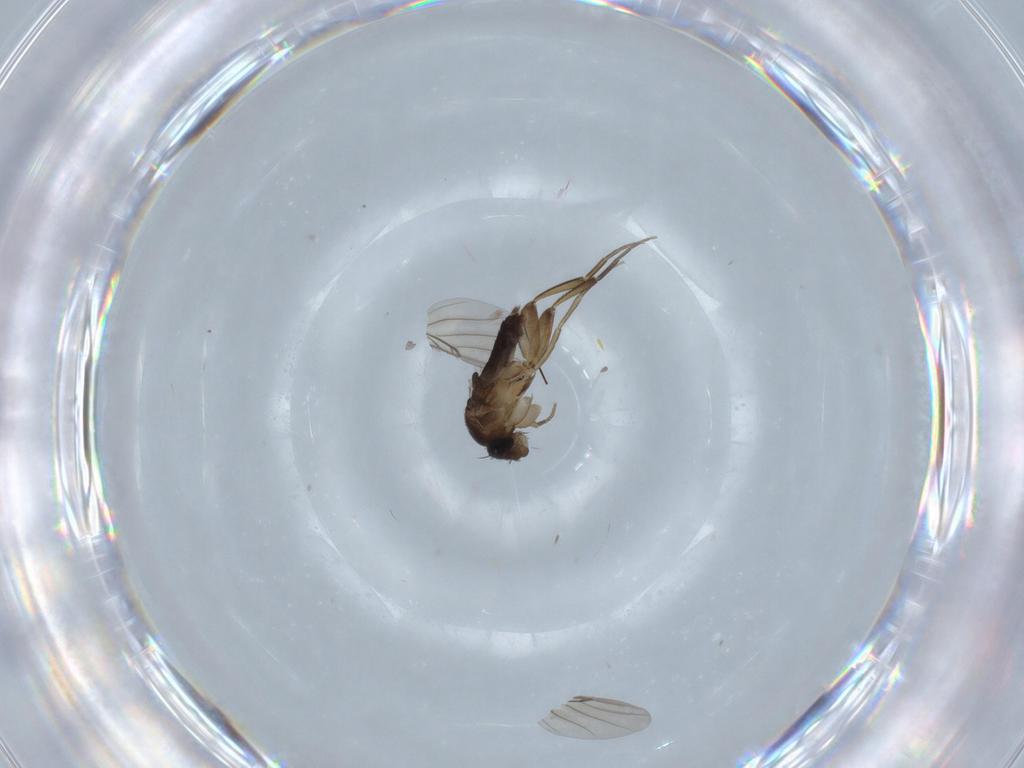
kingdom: Animalia
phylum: Arthropoda
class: Insecta
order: Diptera
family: Phoridae
